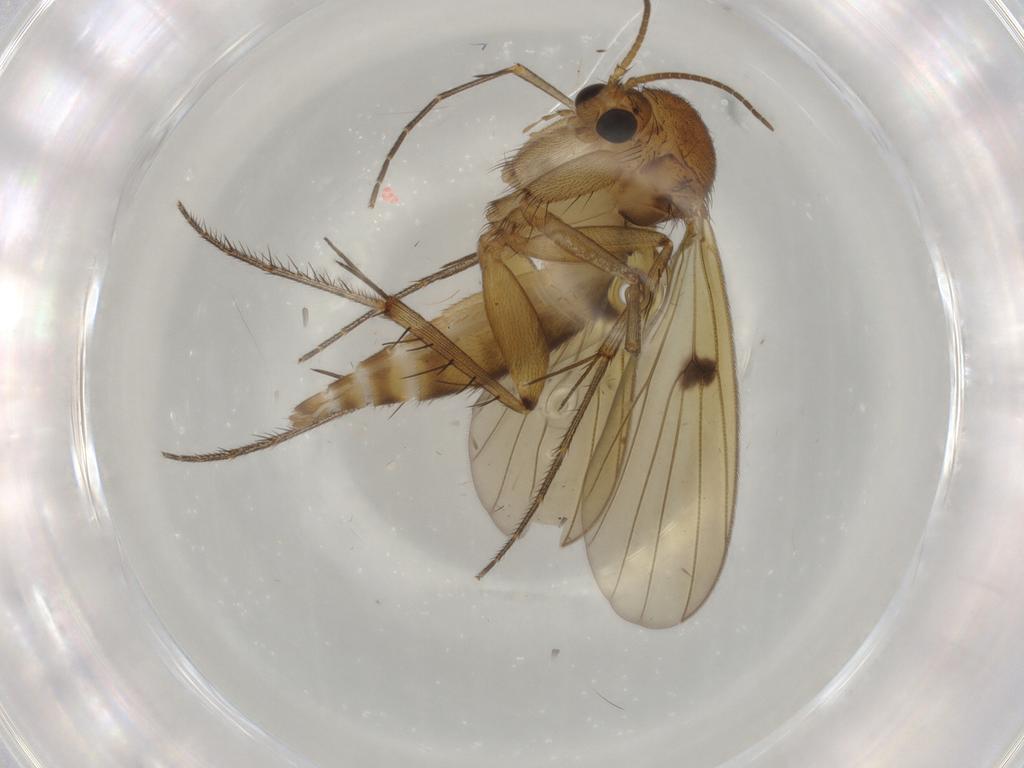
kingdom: Animalia
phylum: Arthropoda
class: Insecta
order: Diptera
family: Mycetophilidae
